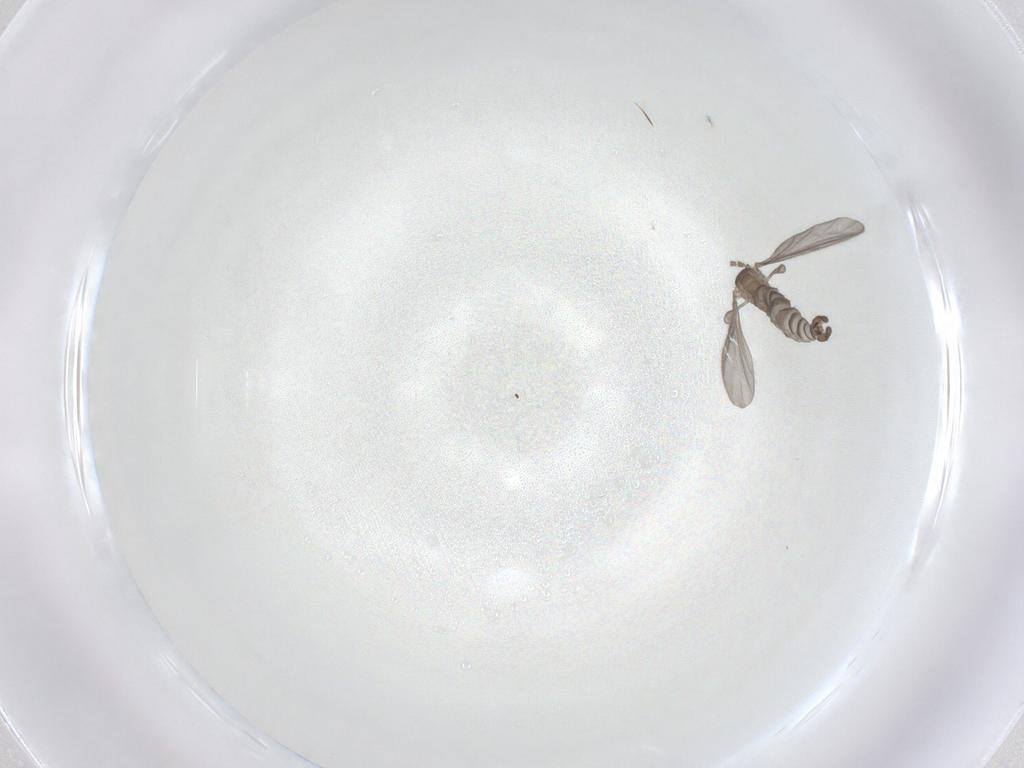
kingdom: Animalia
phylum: Arthropoda
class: Insecta
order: Diptera
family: Sciaridae
